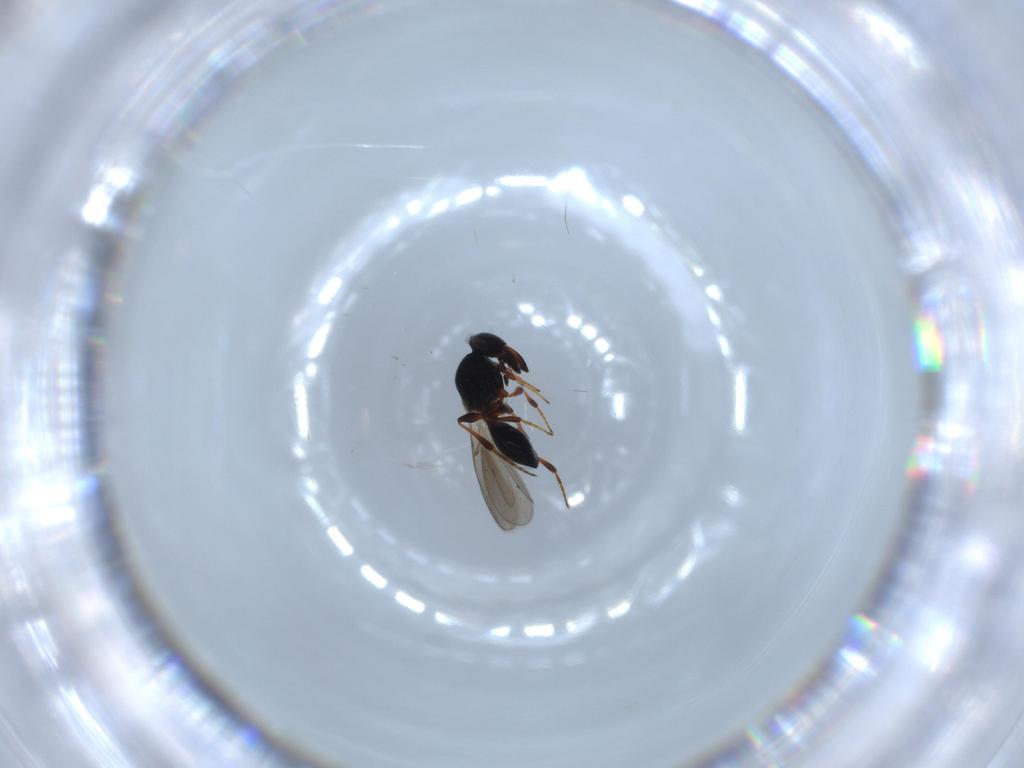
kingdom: Animalia
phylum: Arthropoda
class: Insecta
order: Hymenoptera
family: Platygastridae
